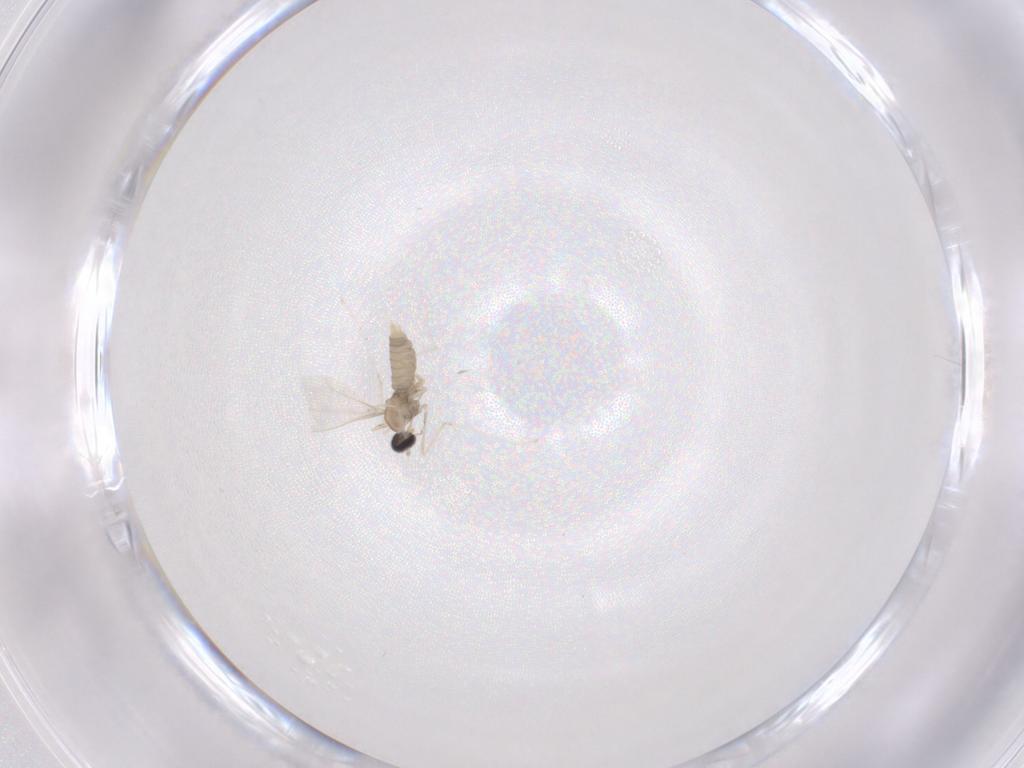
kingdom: Animalia
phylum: Arthropoda
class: Insecta
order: Diptera
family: Cecidomyiidae
